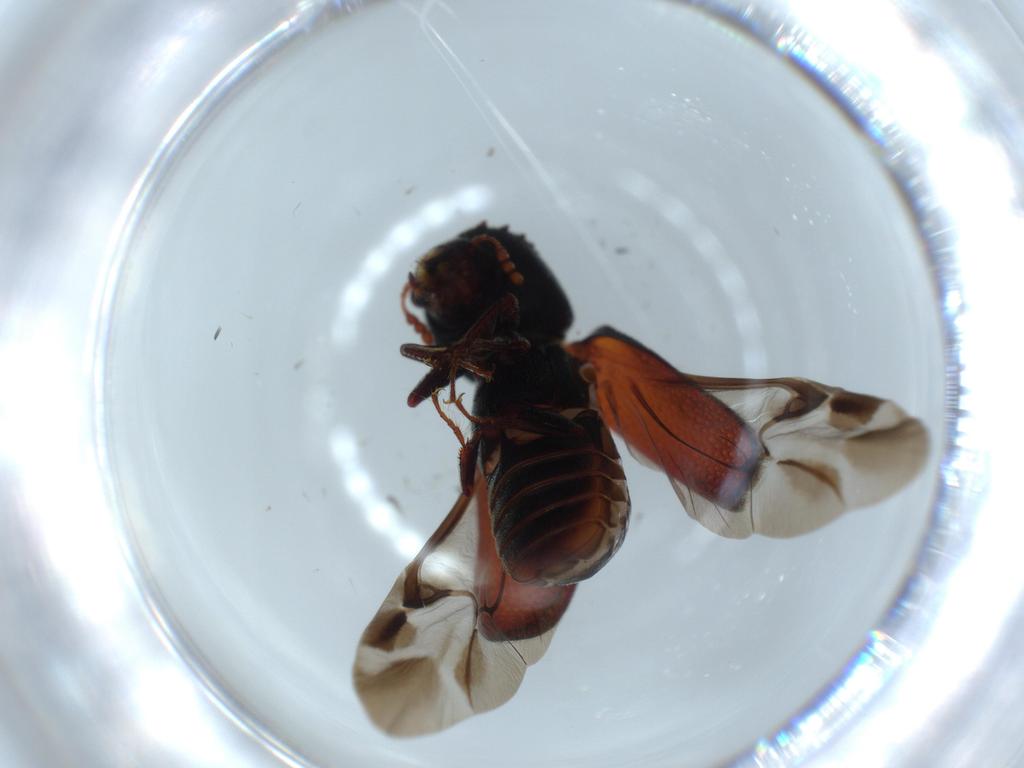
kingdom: Animalia
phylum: Arthropoda
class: Insecta
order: Coleoptera
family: Bostrichidae
